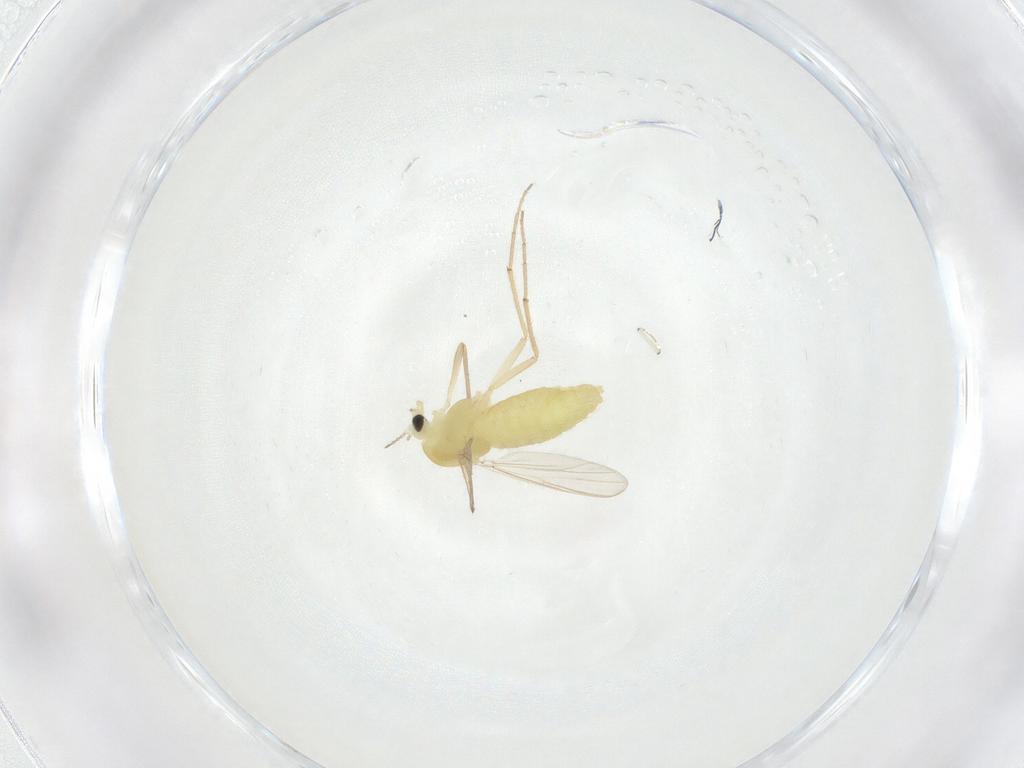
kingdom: Animalia
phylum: Arthropoda
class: Insecta
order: Diptera
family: Chironomidae
